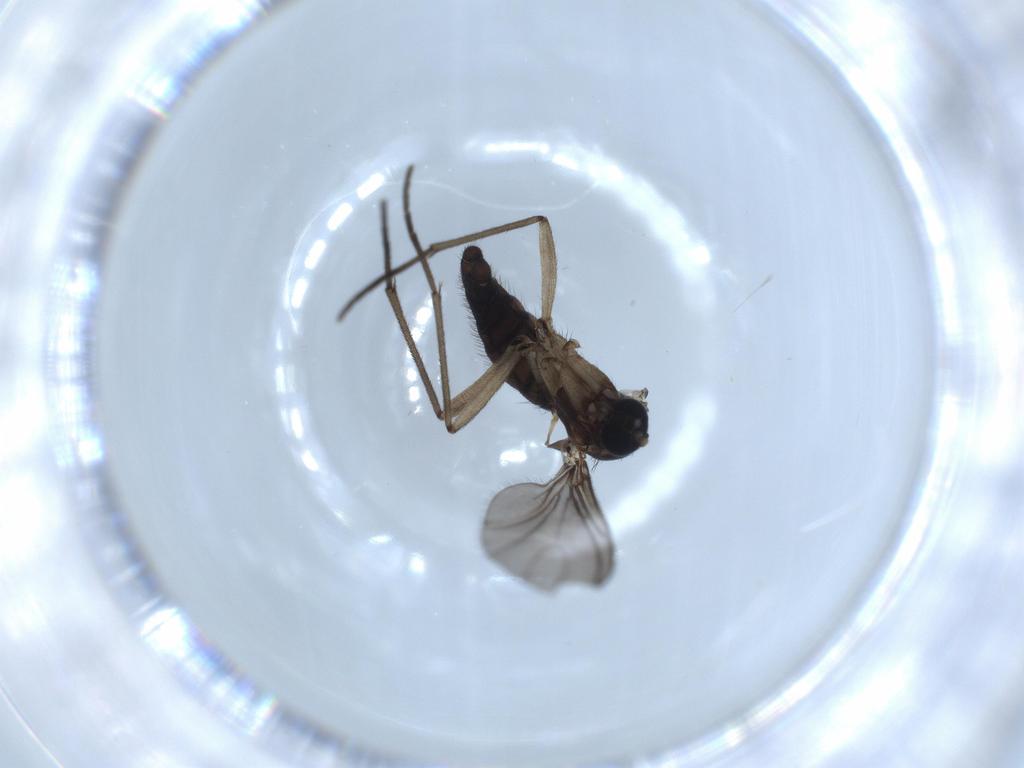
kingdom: Animalia
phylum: Arthropoda
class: Insecta
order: Diptera
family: Sciaridae
